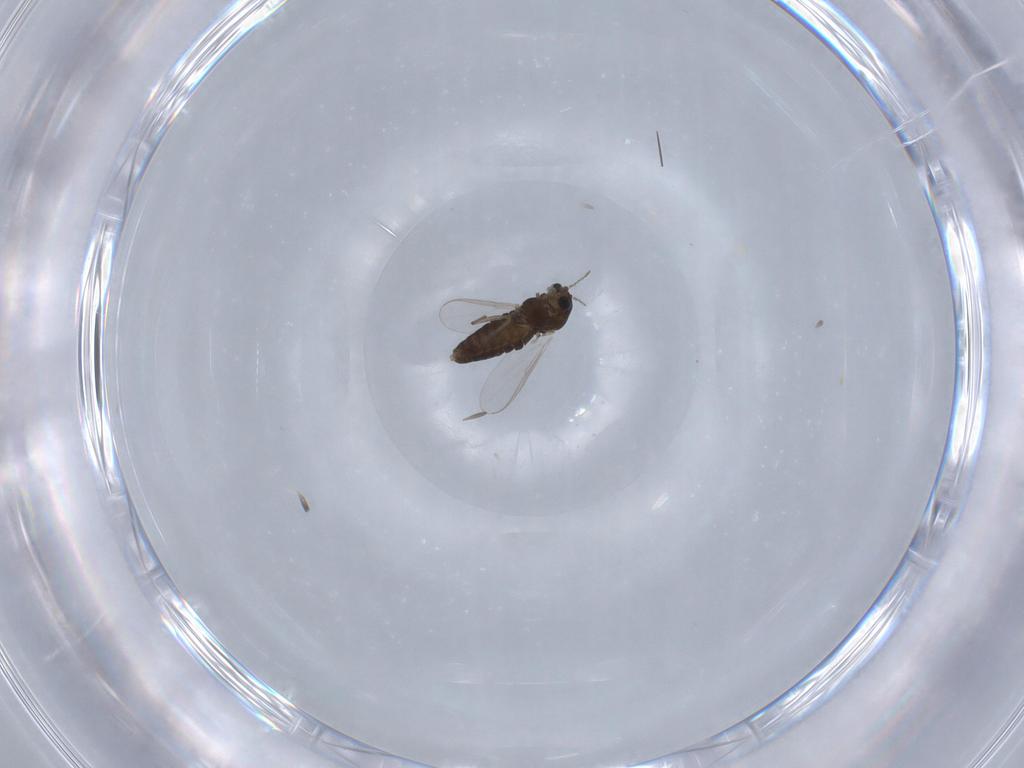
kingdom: Animalia
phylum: Arthropoda
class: Insecta
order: Diptera
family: Chironomidae
